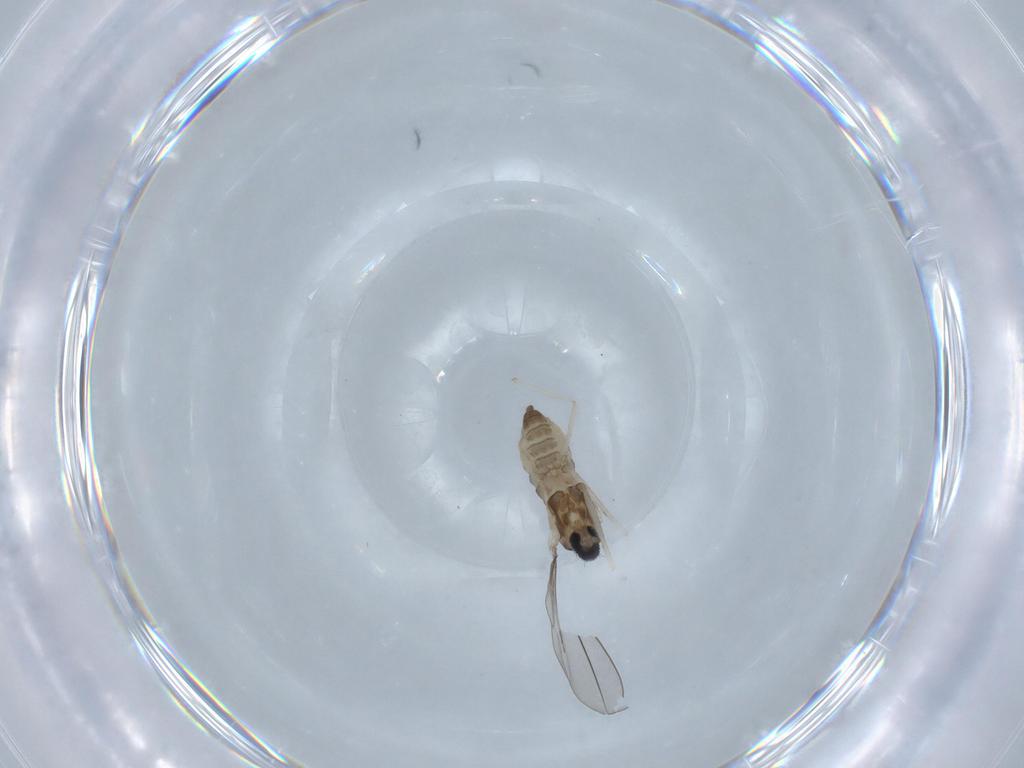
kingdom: Animalia
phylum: Arthropoda
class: Insecta
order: Diptera
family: Cecidomyiidae
